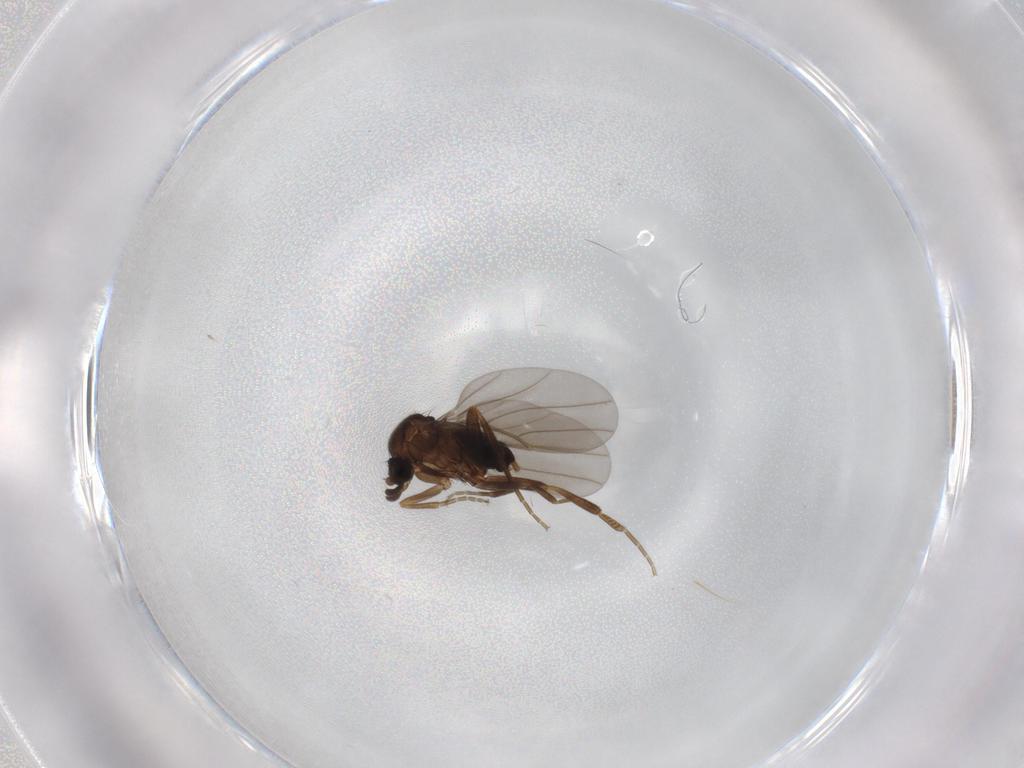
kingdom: Animalia
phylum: Arthropoda
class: Insecta
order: Diptera
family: Phoridae
